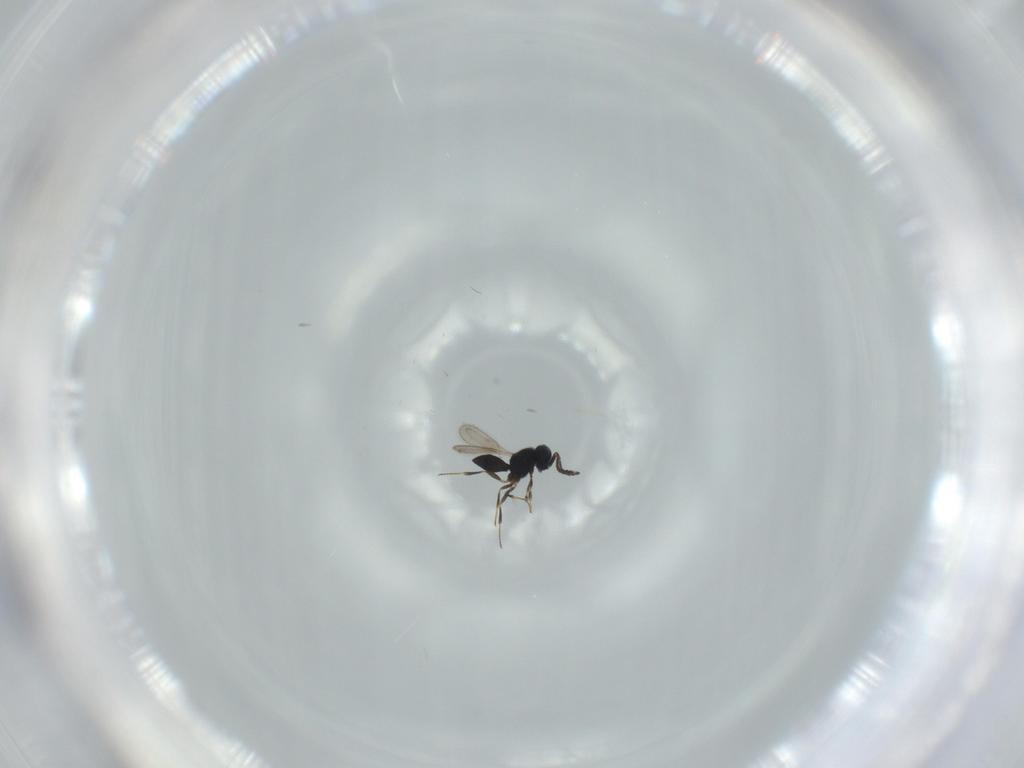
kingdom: Animalia
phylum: Arthropoda
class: Insecta
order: Hymenoptera
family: Scelionidae
